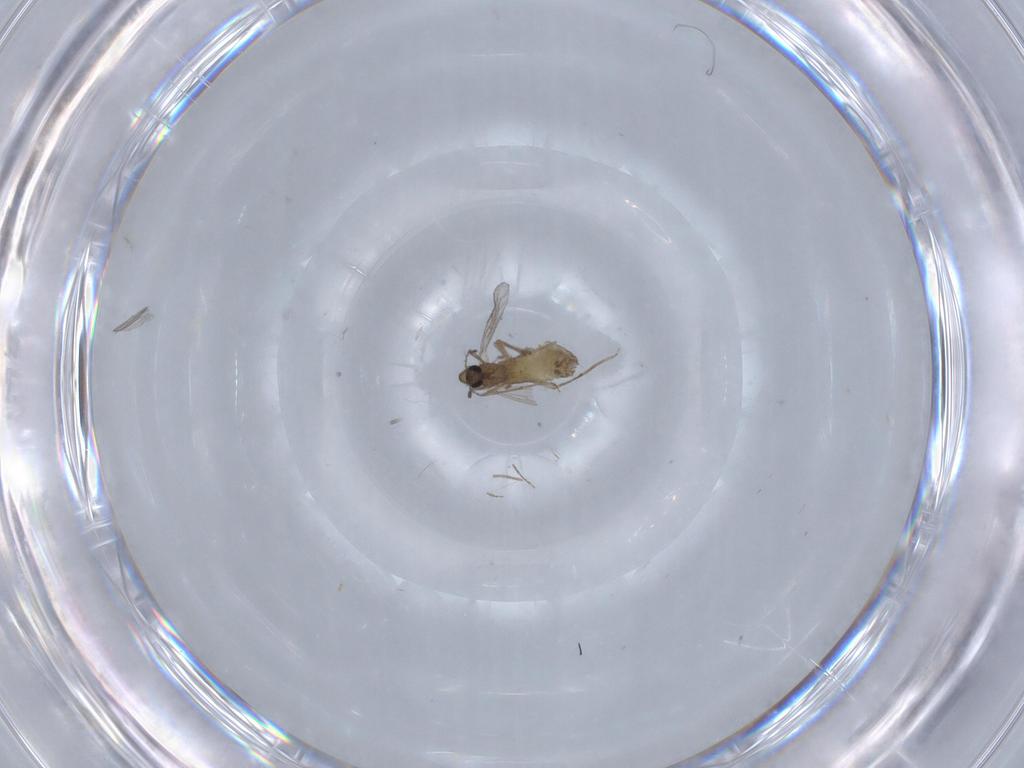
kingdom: Animalia
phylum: Arthropoda
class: Insecta
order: Diptera
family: Chironomidae
